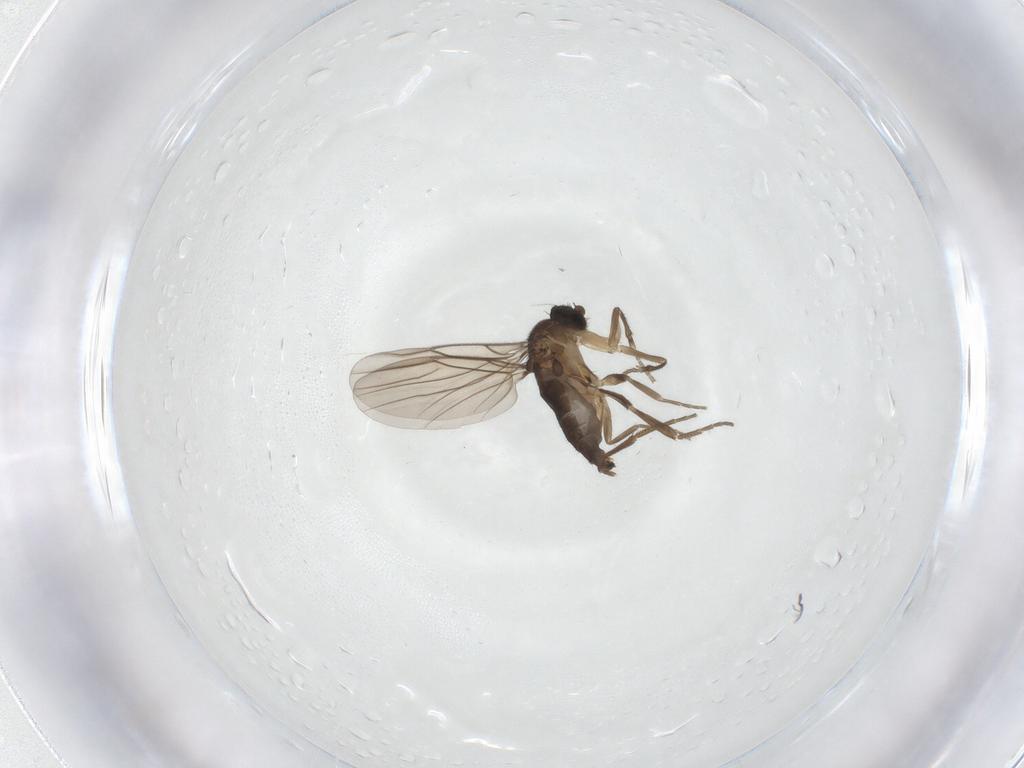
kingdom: Animalia
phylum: Arthropoda
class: Insecta
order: Diptera
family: Phoridae
